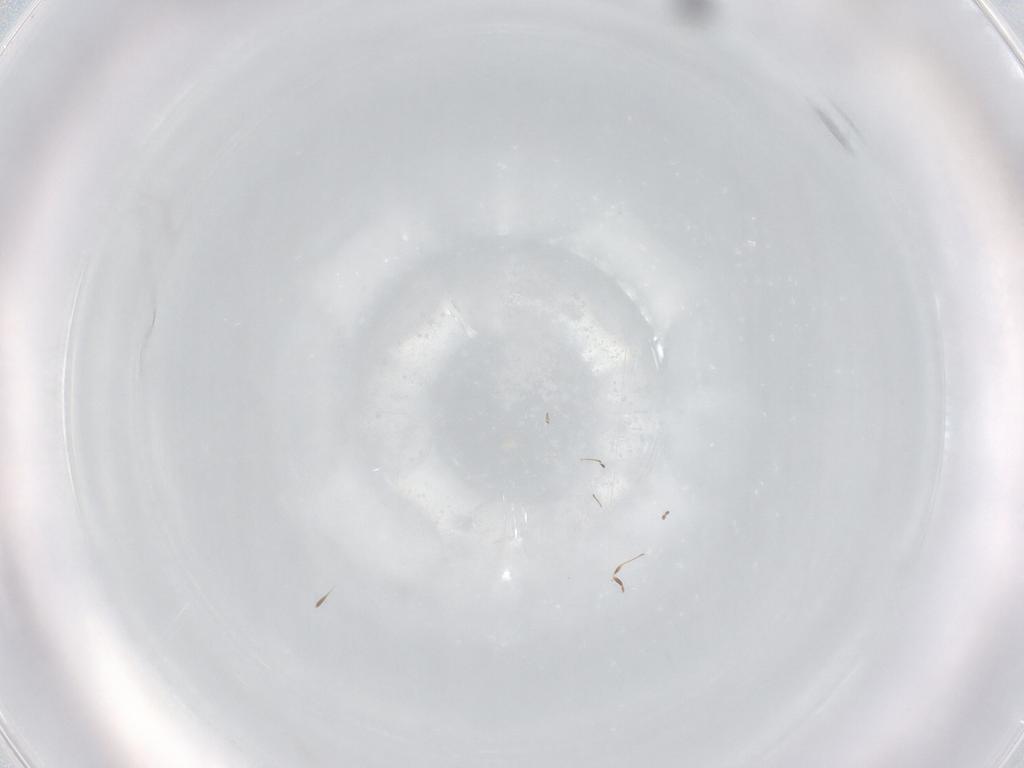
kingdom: Animalia
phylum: Arthropoda
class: Insecta
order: Hymenoptera
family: Scelionidae
